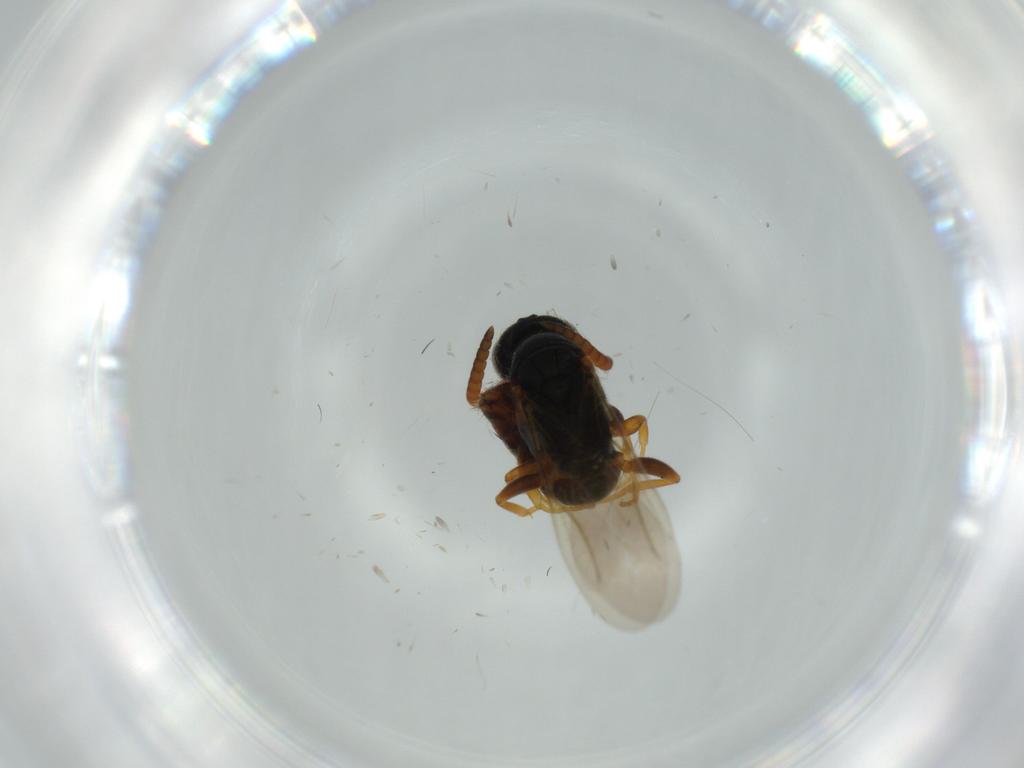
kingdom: Animalia
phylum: Arthropoda
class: Insecta
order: Hymenoptera
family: Bethylidae
